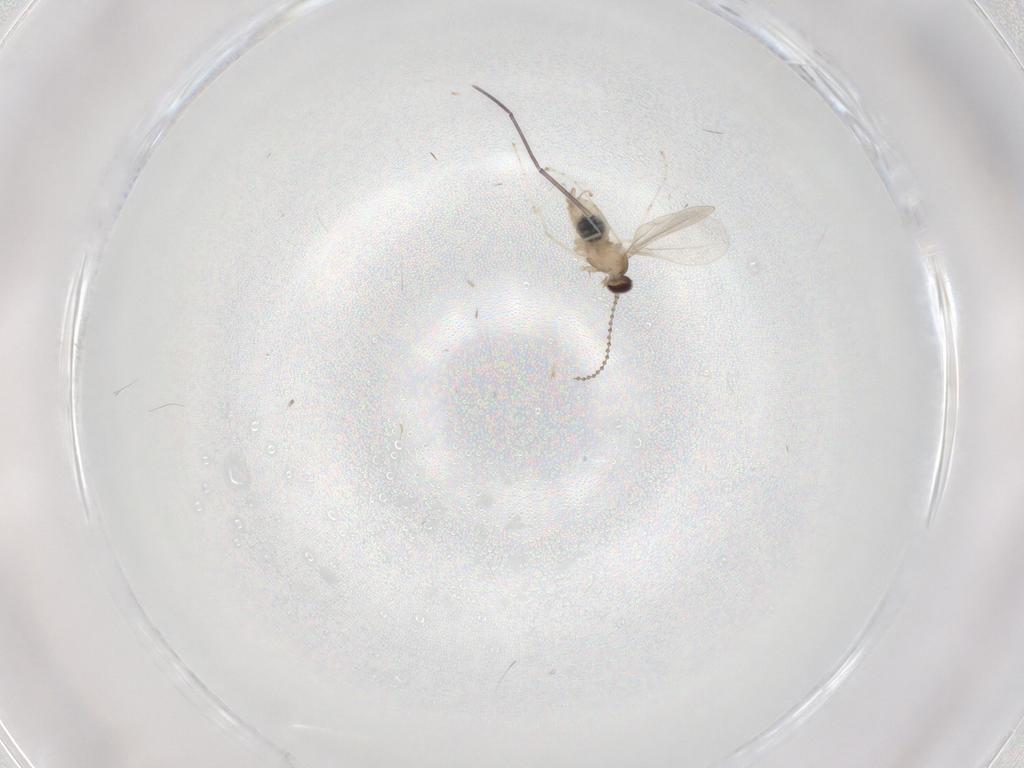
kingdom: Animalia
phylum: Arthropoda
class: Insecta
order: Diptera
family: Cecidomyiidae
